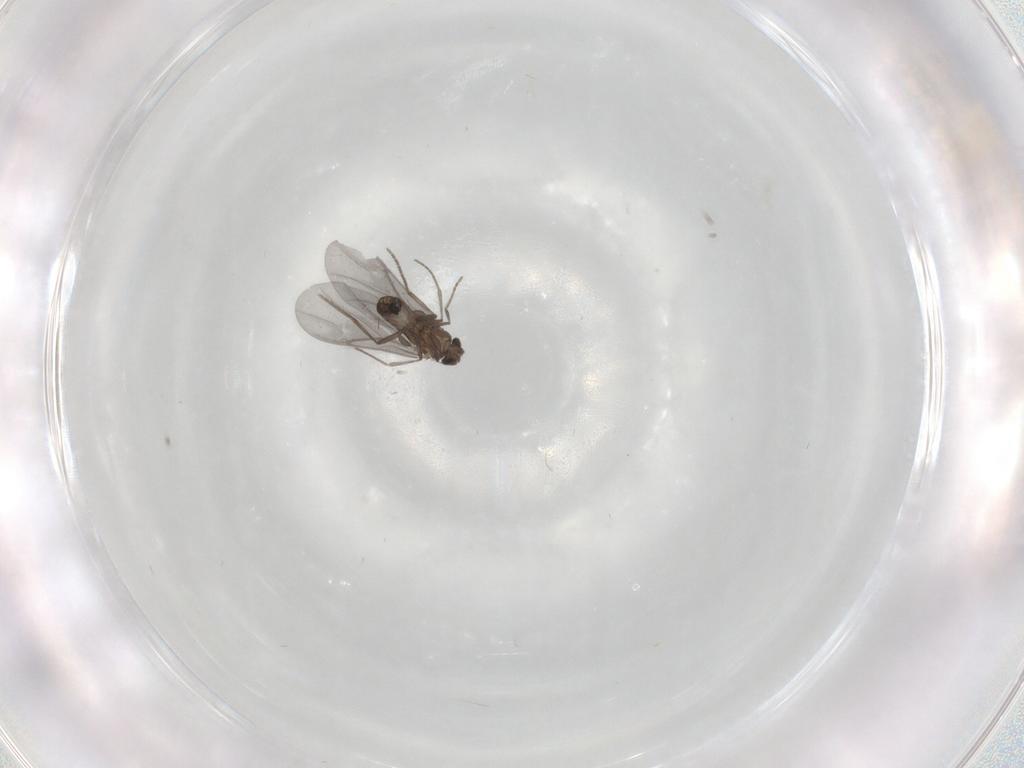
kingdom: Animalia
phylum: Arthropoda
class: Insecta
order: Diptera
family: Phoridae
